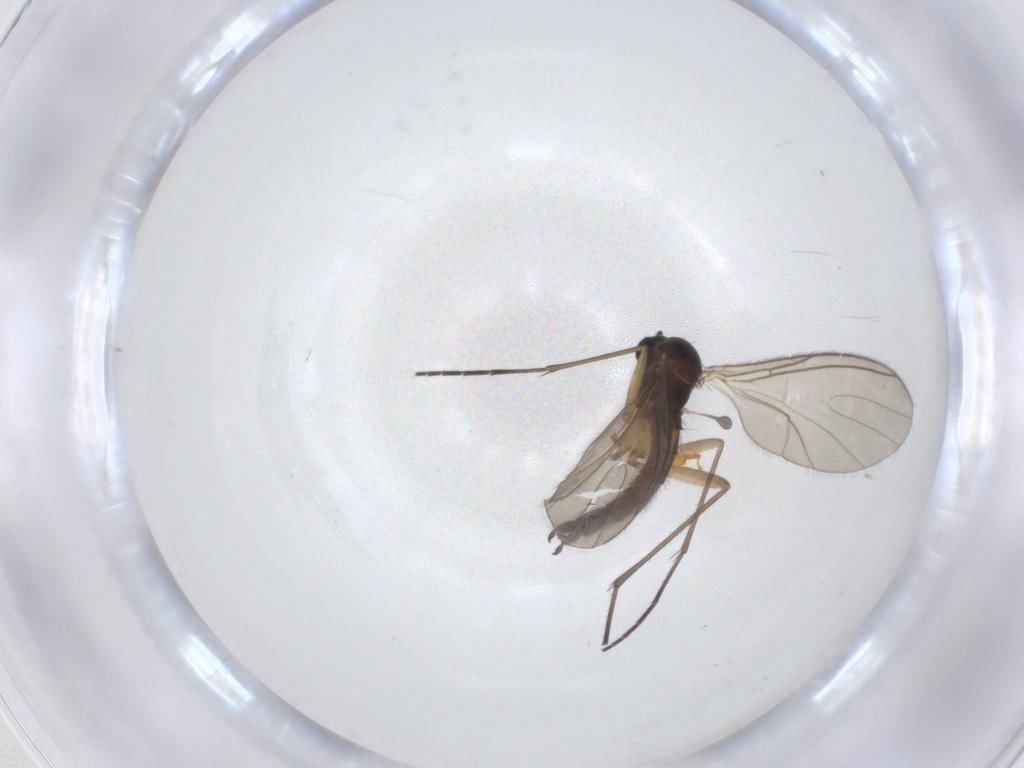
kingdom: Animalia
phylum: Arthropoda
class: Insecta
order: Diptera
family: Sciaridae
